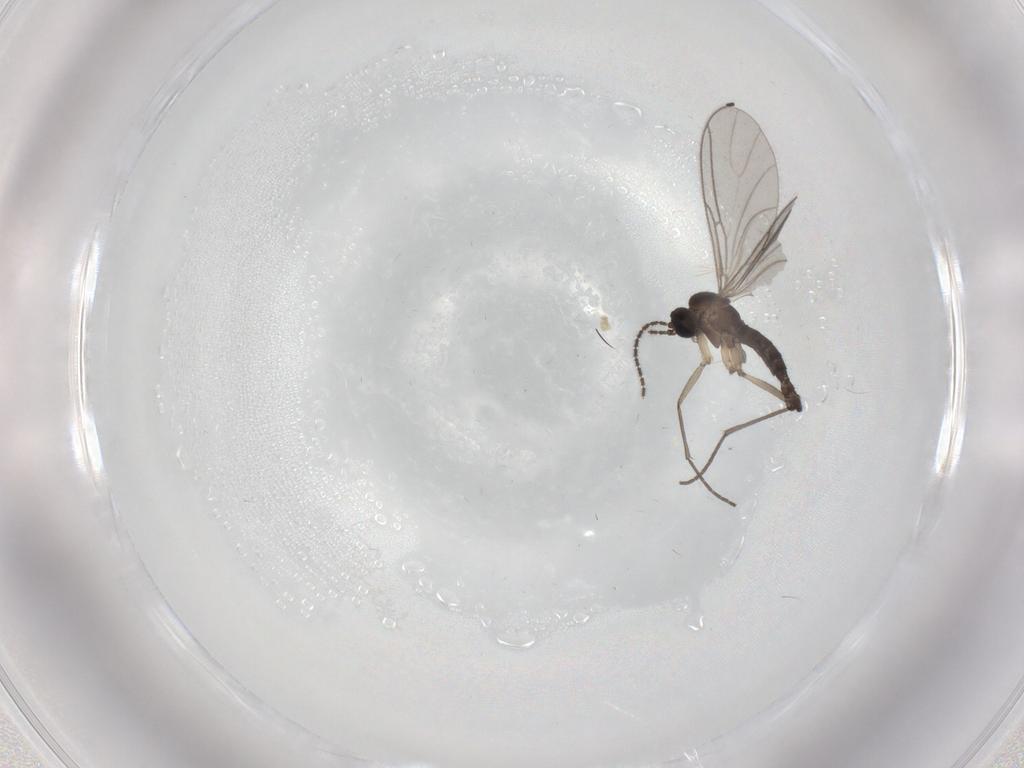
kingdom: Animalia
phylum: Arthropoda
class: Insecta
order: Diptera
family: Sciaridae
